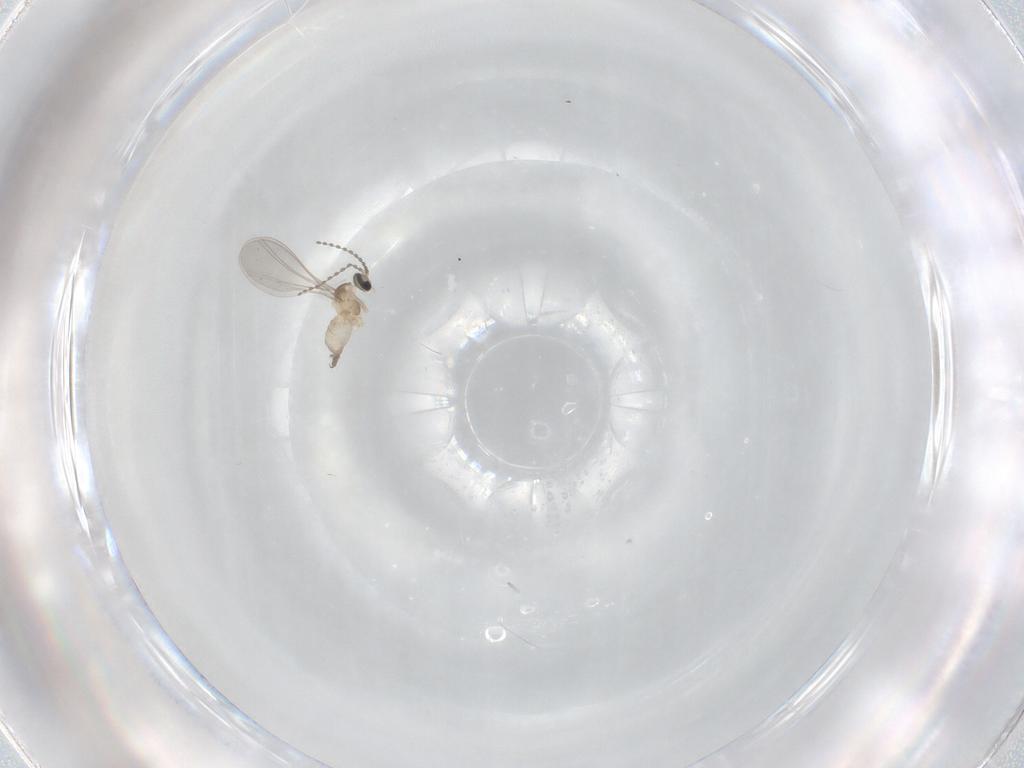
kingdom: Animalia
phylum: Arthropoda
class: Insecta
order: Diptera
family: Cecidomyiidae
